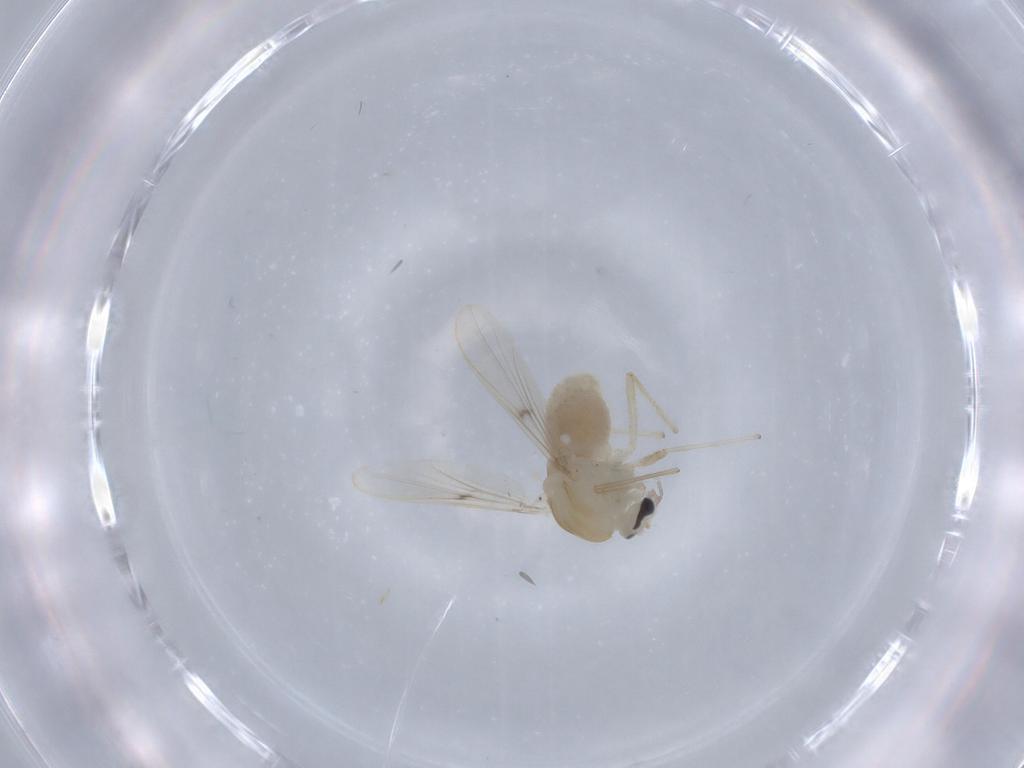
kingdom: Animalia
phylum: Arthropoda
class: Insecta
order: Diptera
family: Chironomidae
